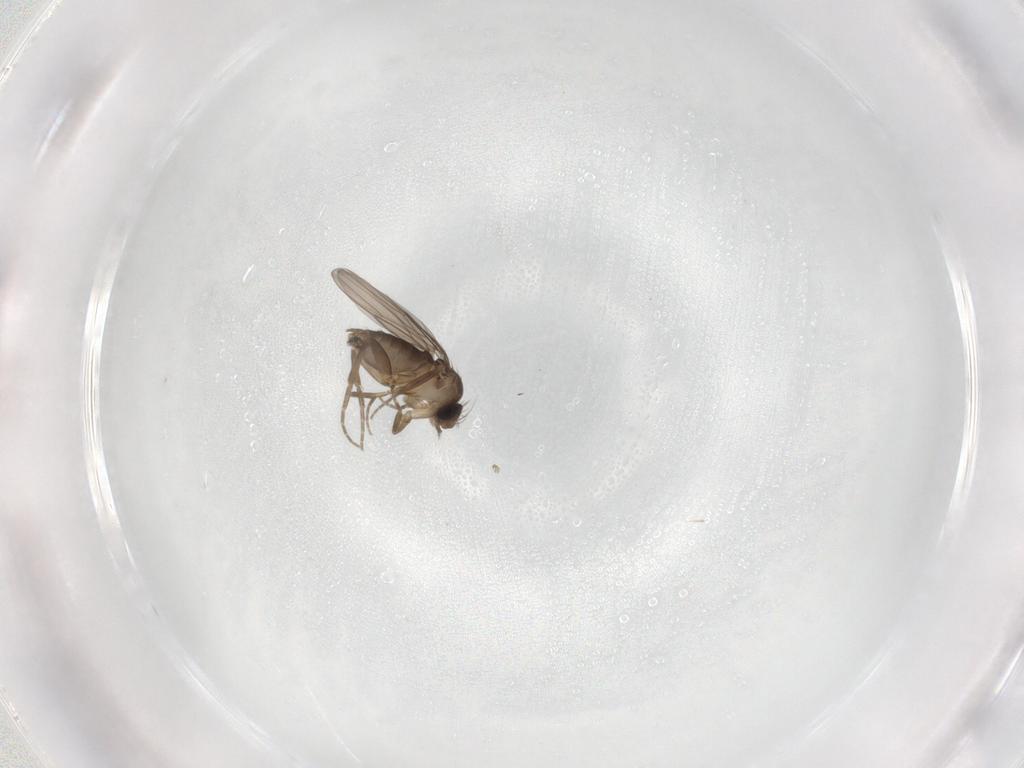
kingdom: Animalia
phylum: Arthropoda
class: Insecta
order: Diptera
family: Psychodidae
